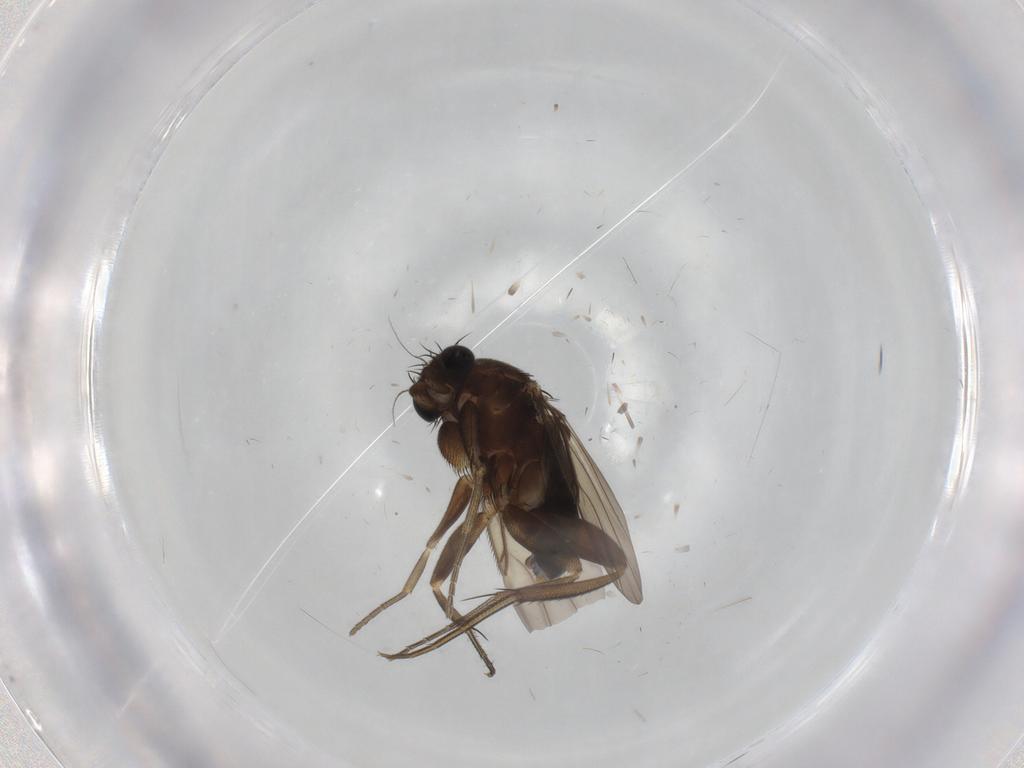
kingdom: Animalia
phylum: Arthropoda
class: Insecta
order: Diptera
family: Phoridae
